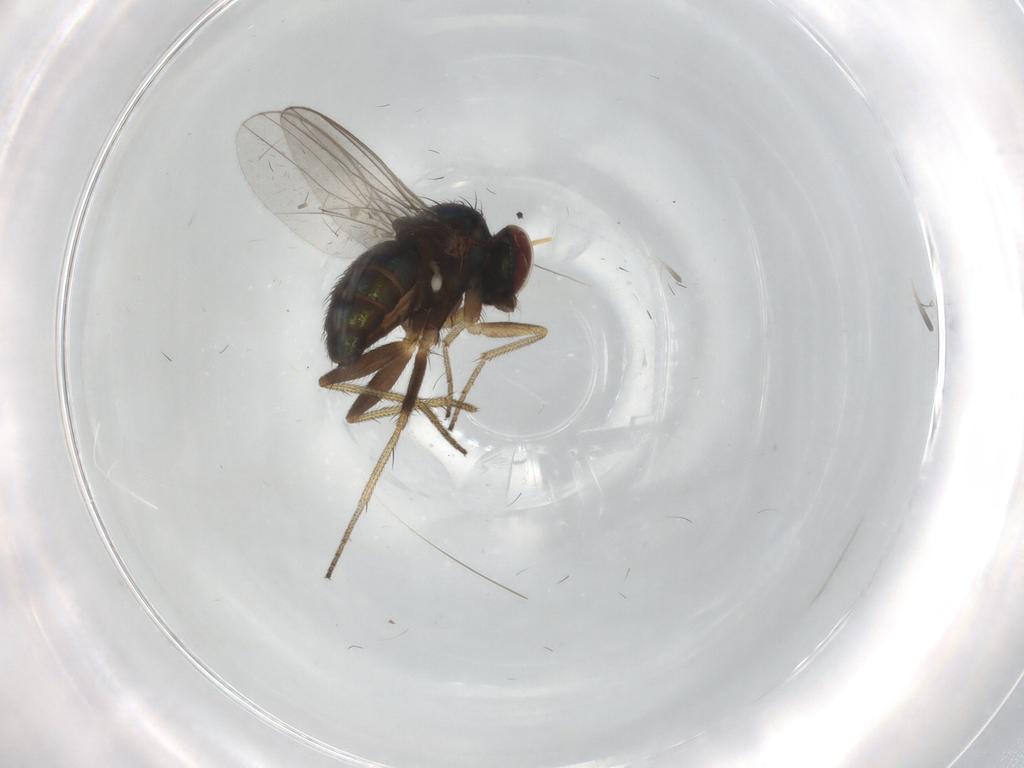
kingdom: Animalia
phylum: Arthropoda
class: Insecta
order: Diptera
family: Dolichopodidae
